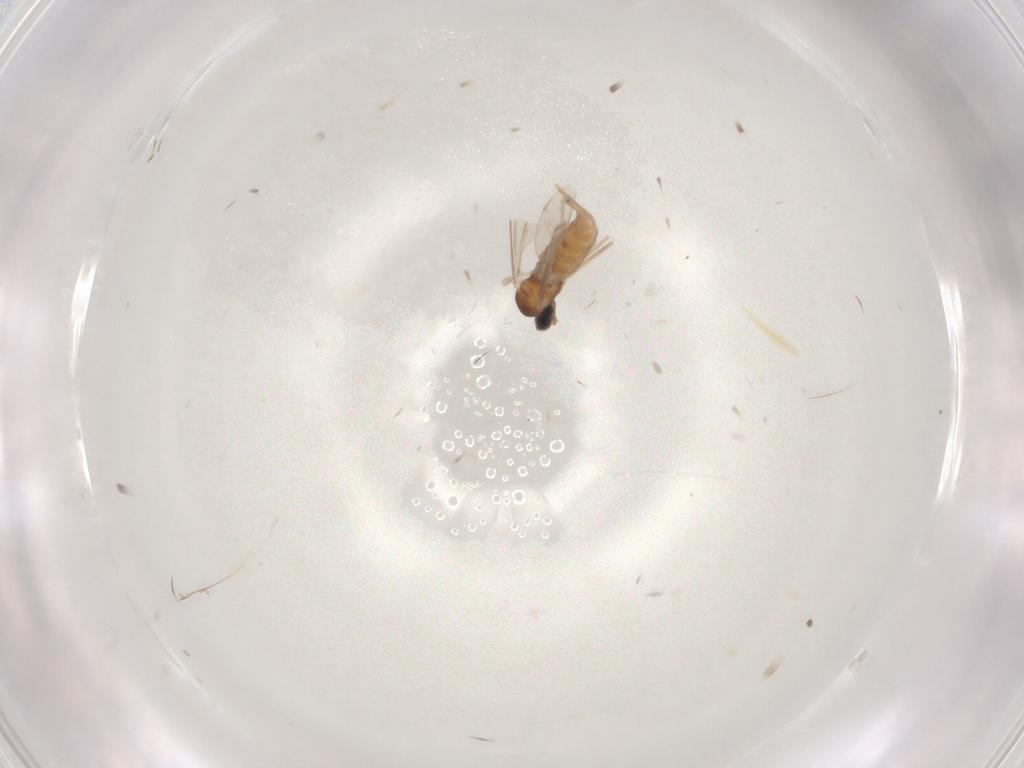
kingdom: Animalia
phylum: Arthropoda
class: Insecta
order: Diptera
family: Cecidomyiidae
